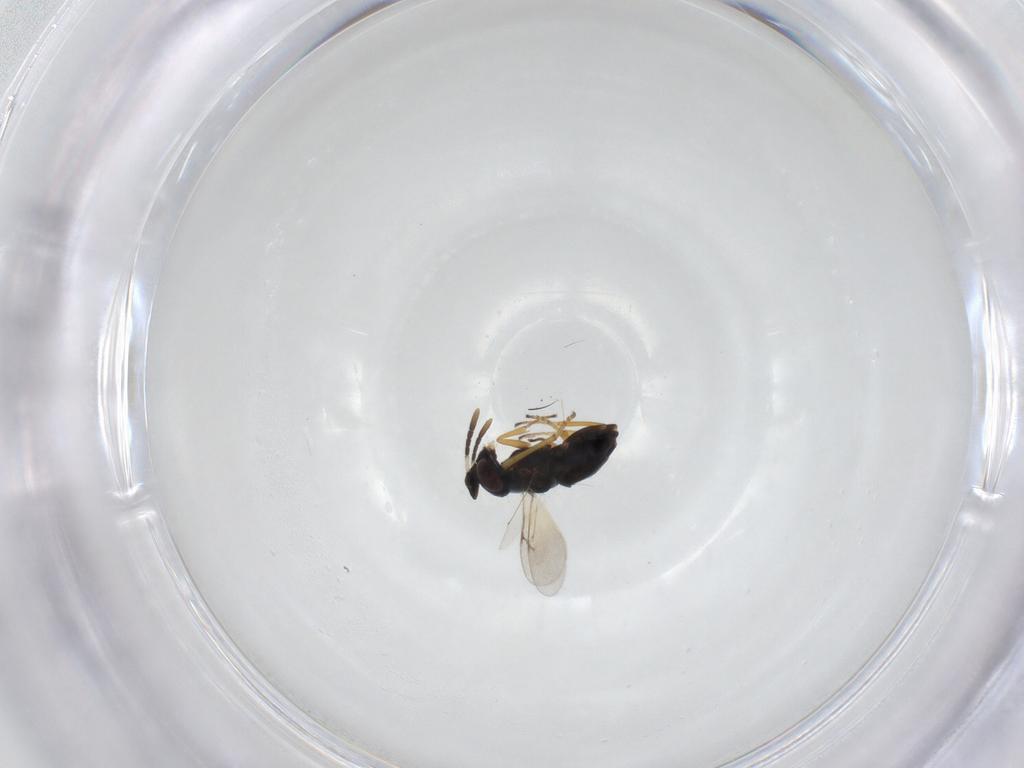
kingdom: Animalia
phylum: Arthropoda
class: Insecta
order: Hymenoptera
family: Encyrtidae
